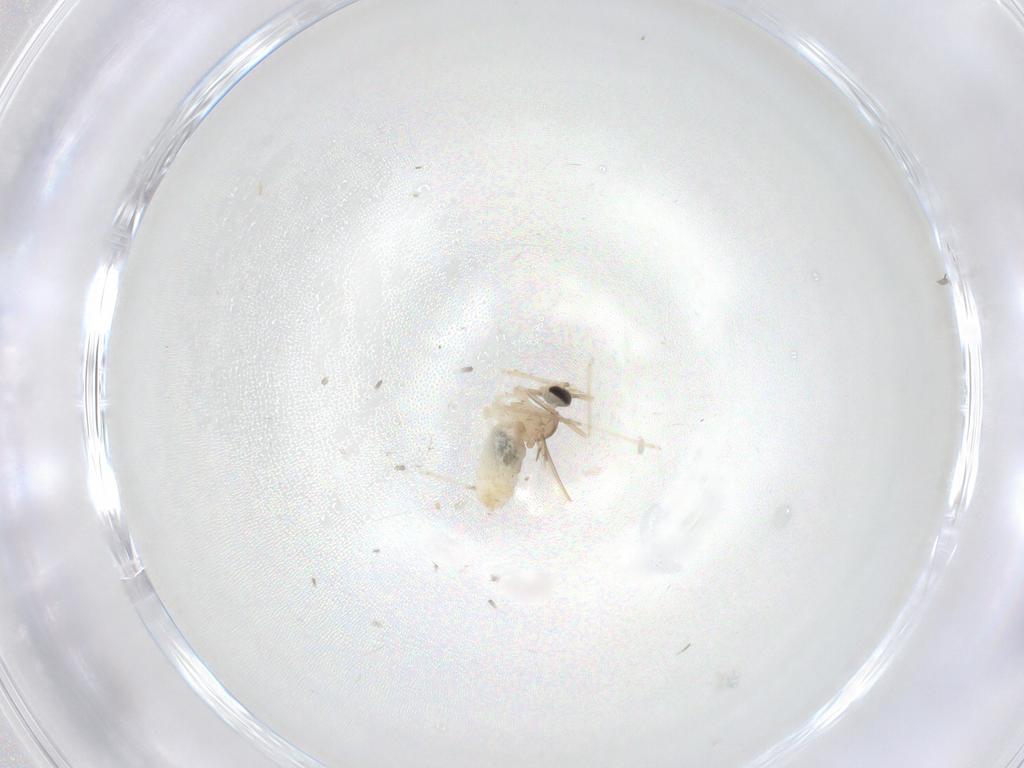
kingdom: Animalia
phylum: Arthropoda
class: Insecta
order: Diptera
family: Cecidomyiidae
